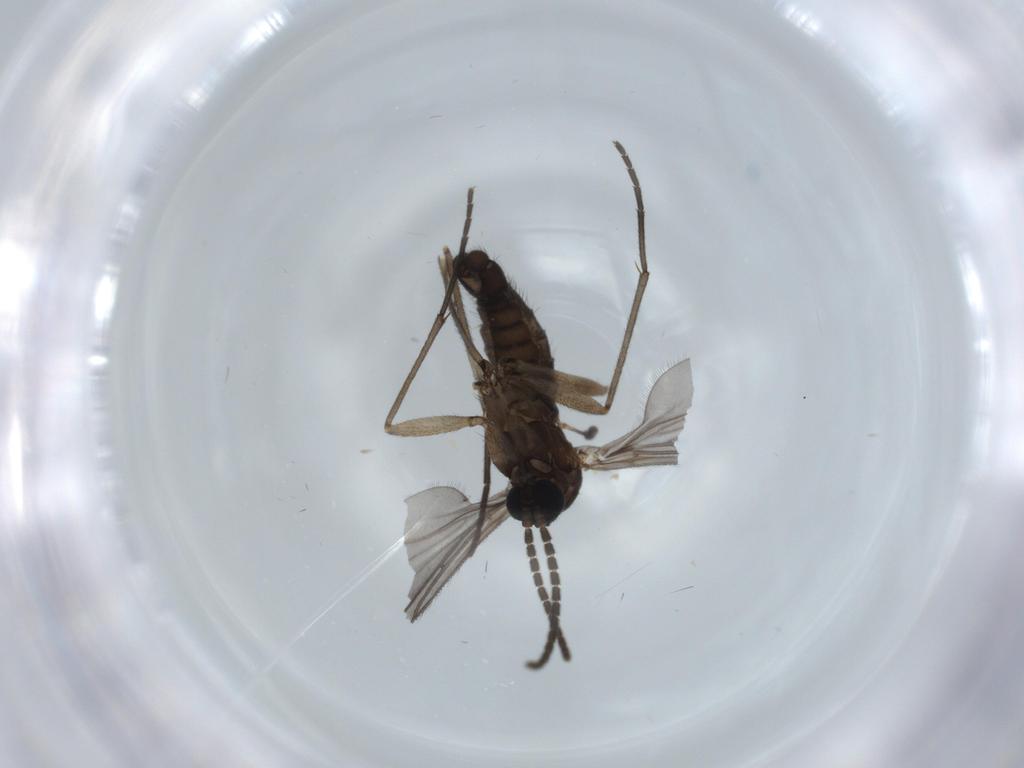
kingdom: Animalia
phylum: Arthropoda
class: Insecta
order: Diptera
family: Sciaridae
